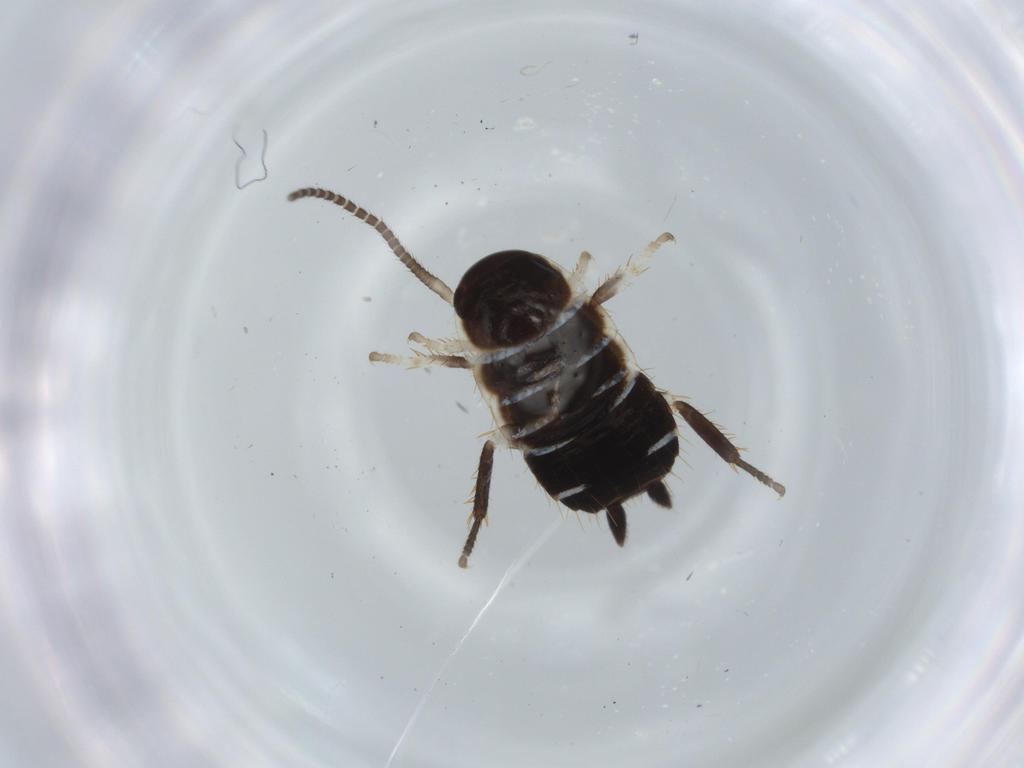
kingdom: Animalia
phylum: Arthropoda
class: Insecta
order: Blattodea
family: Ectobiidae
